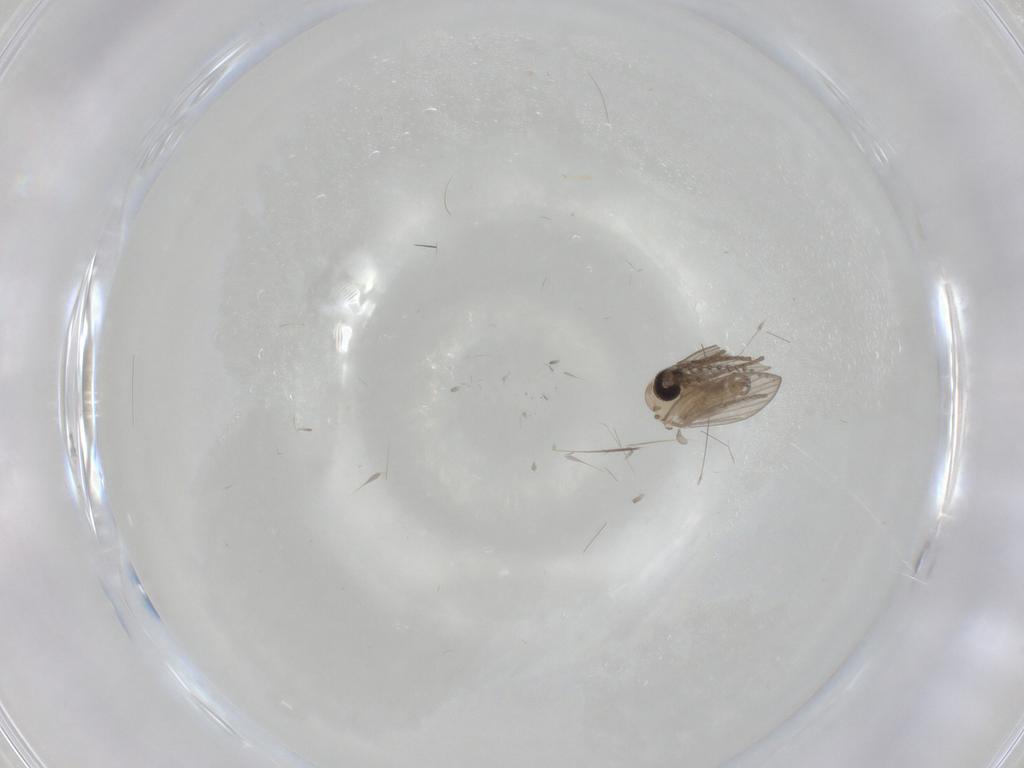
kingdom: Animalia
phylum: Arthropoda
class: Insecta
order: Diptera
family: Psychodidae
